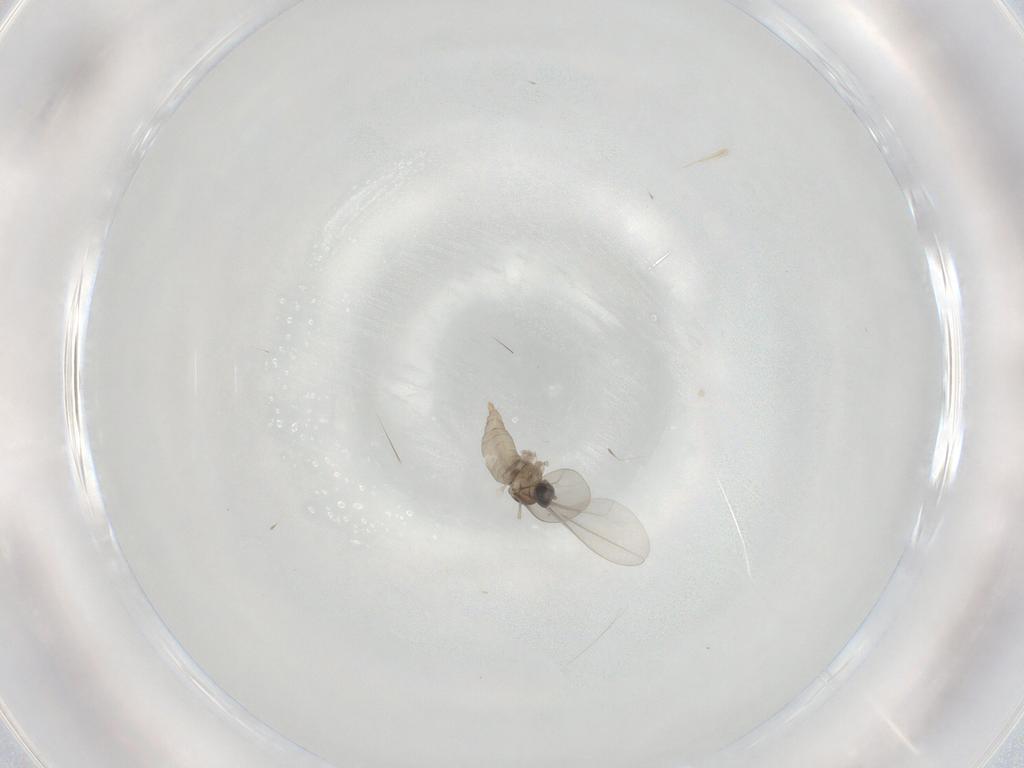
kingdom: Animalia
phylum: Arthropoda
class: Insecta
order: Diptera
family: Cecidomyiidae
